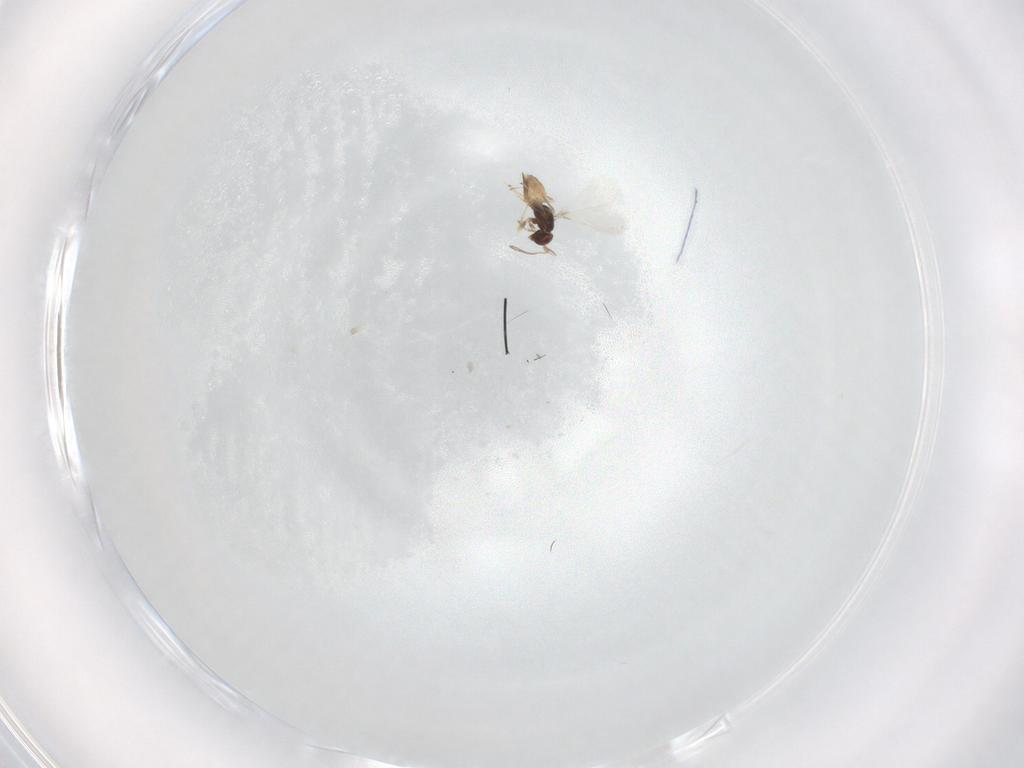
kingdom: Animalia
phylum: Arthropoda
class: Insecta
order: Hymenoptera
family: Mymaridae
